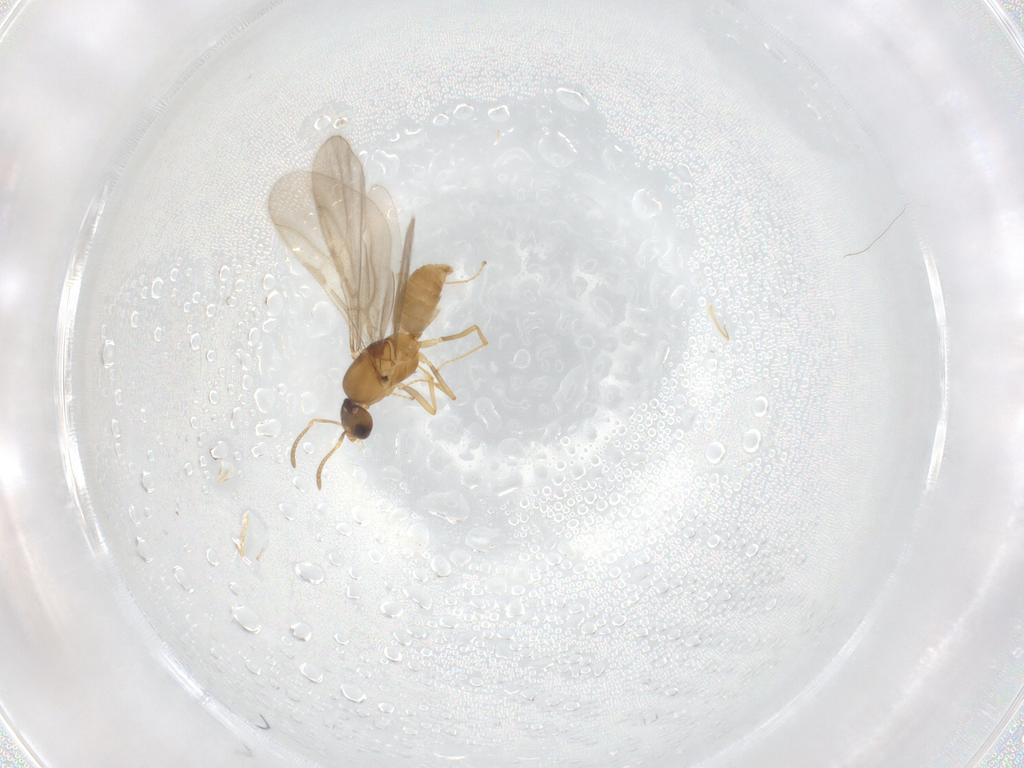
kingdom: Animalia
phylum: Arthropoda
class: Insecta
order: Hymenoptera
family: Formicidae
